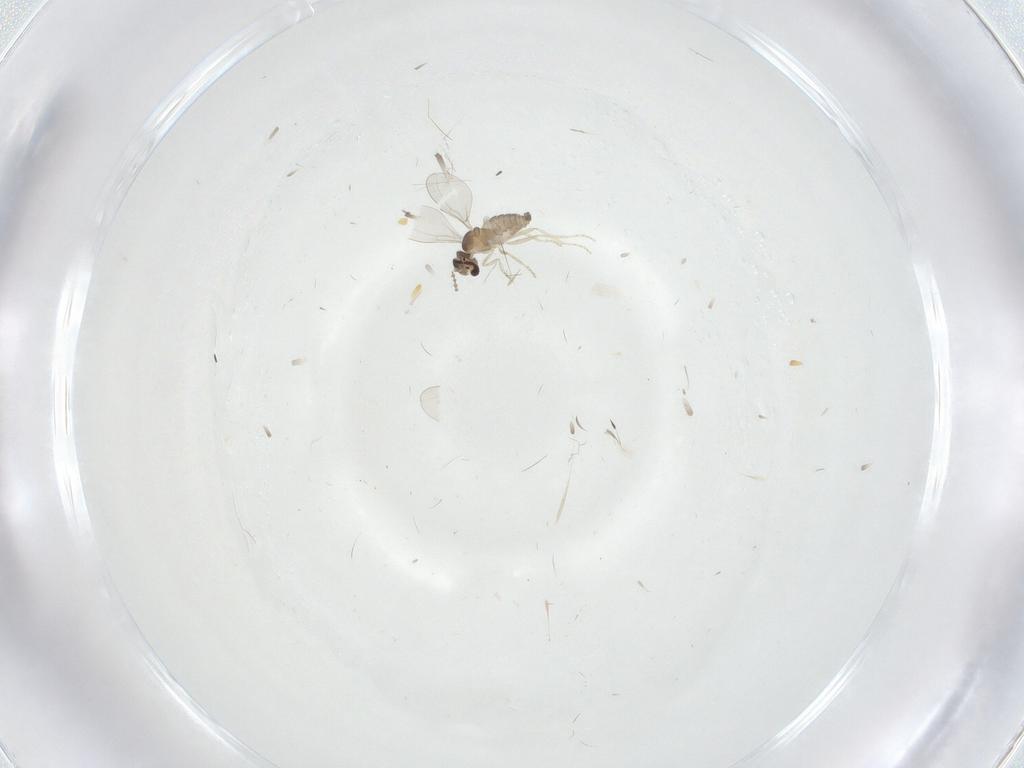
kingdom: Animalia
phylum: Arthropoda
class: Insecta
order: Diptera
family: Cecidomyiidae
